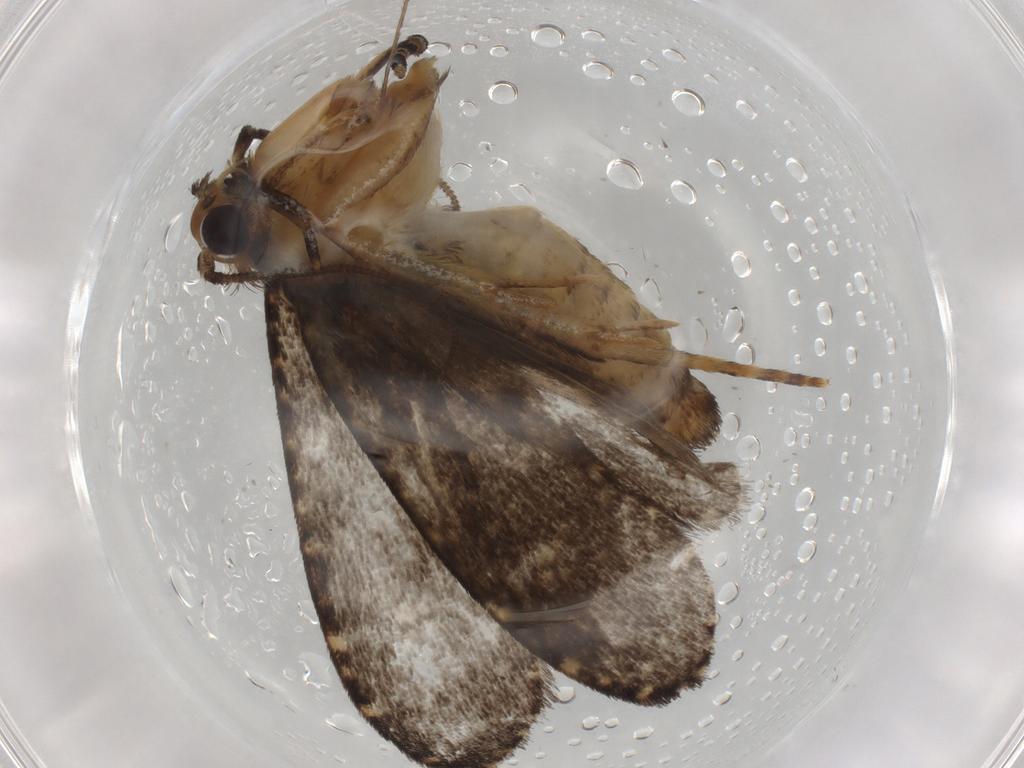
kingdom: Animalia
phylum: Arthropoda
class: Insecta
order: Lepidoptera
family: Tineidae
